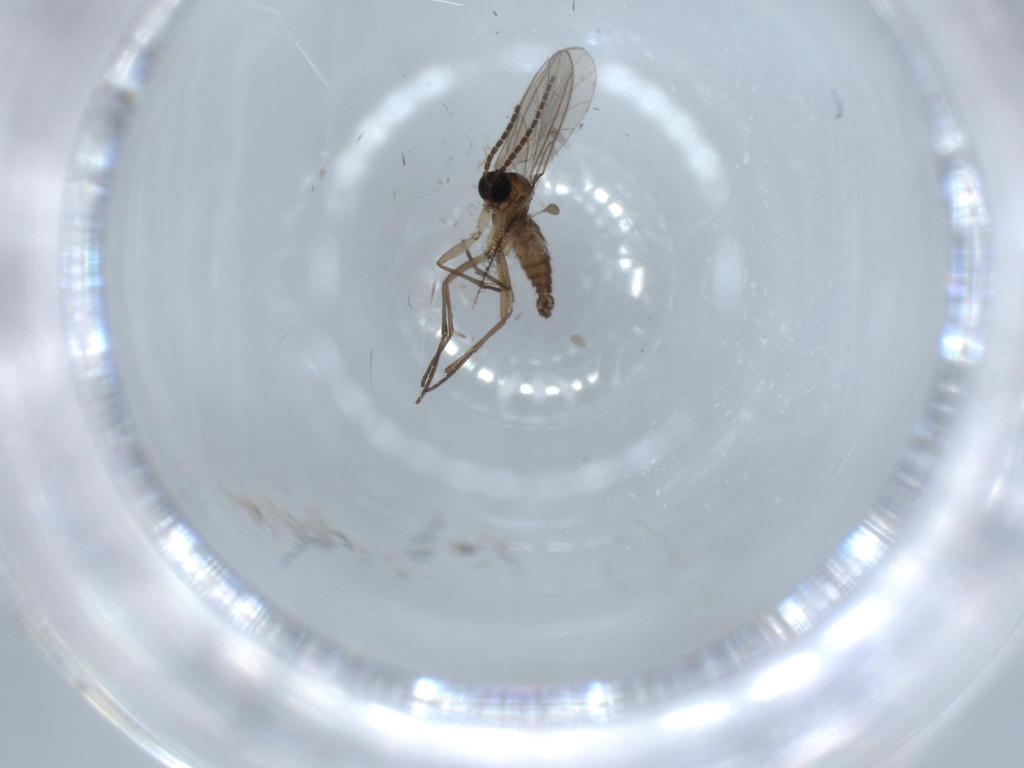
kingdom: Animalia
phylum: Arthropoda
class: Insecta
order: Diptera
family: Sciaridae
